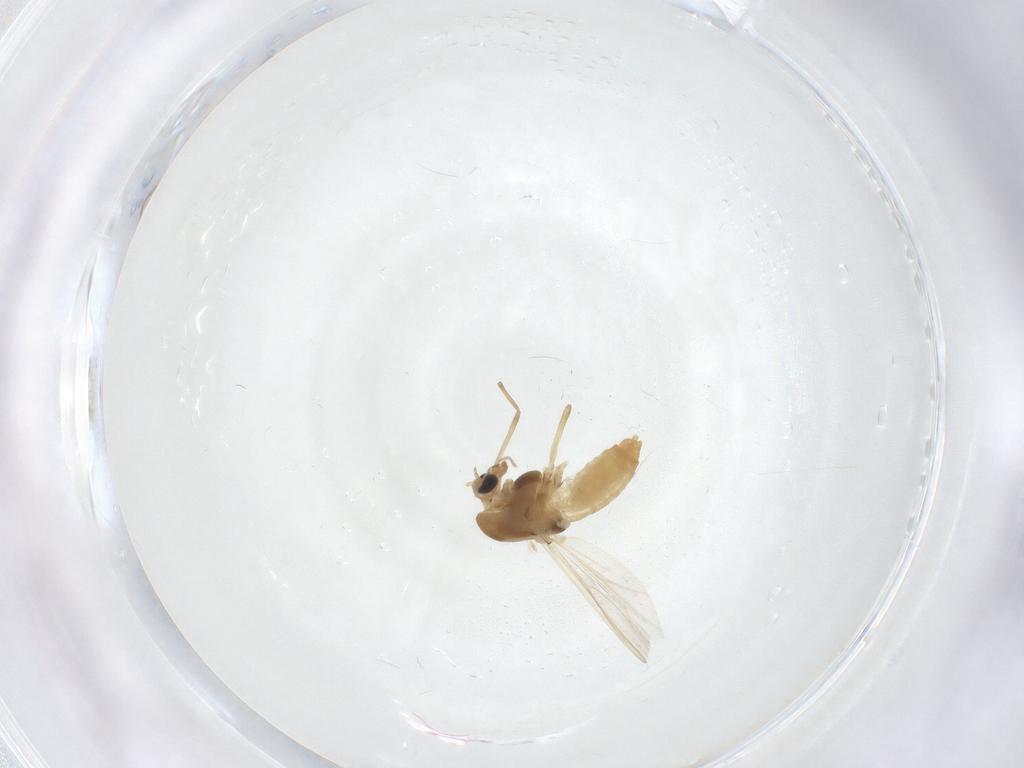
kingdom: Animalia
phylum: Arthropoda
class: Insecta
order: Diptera
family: Chironomidae
